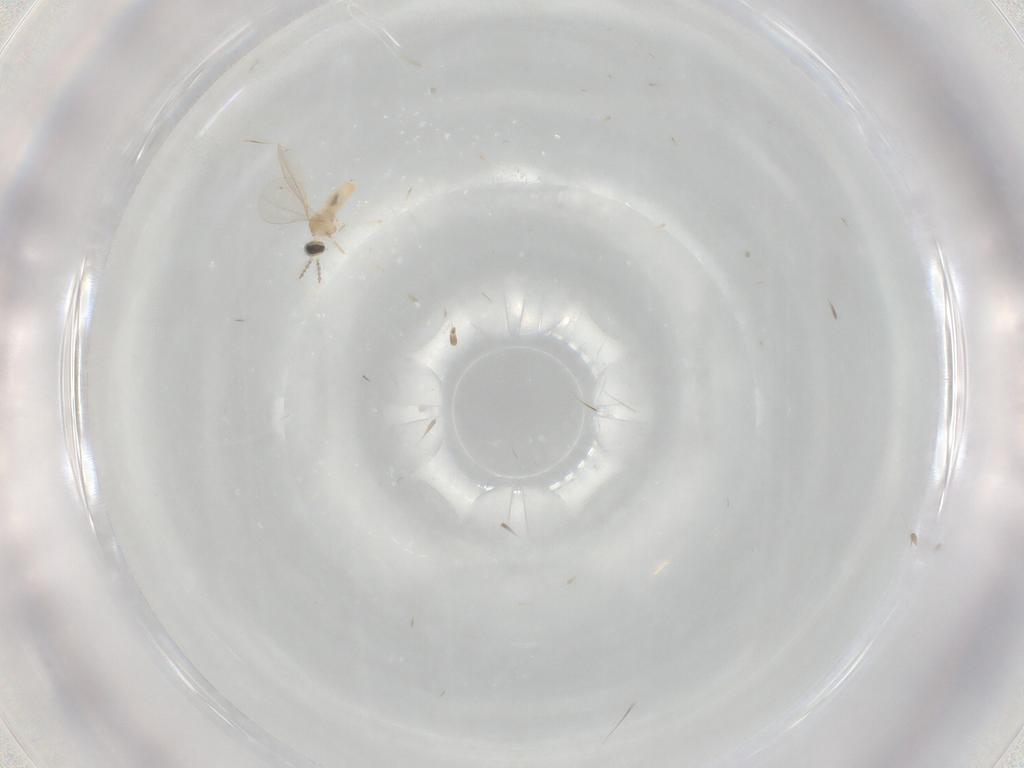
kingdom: Animalia
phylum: Arthropoda
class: Insecta
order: Diptera
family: Cecidomyiidae
